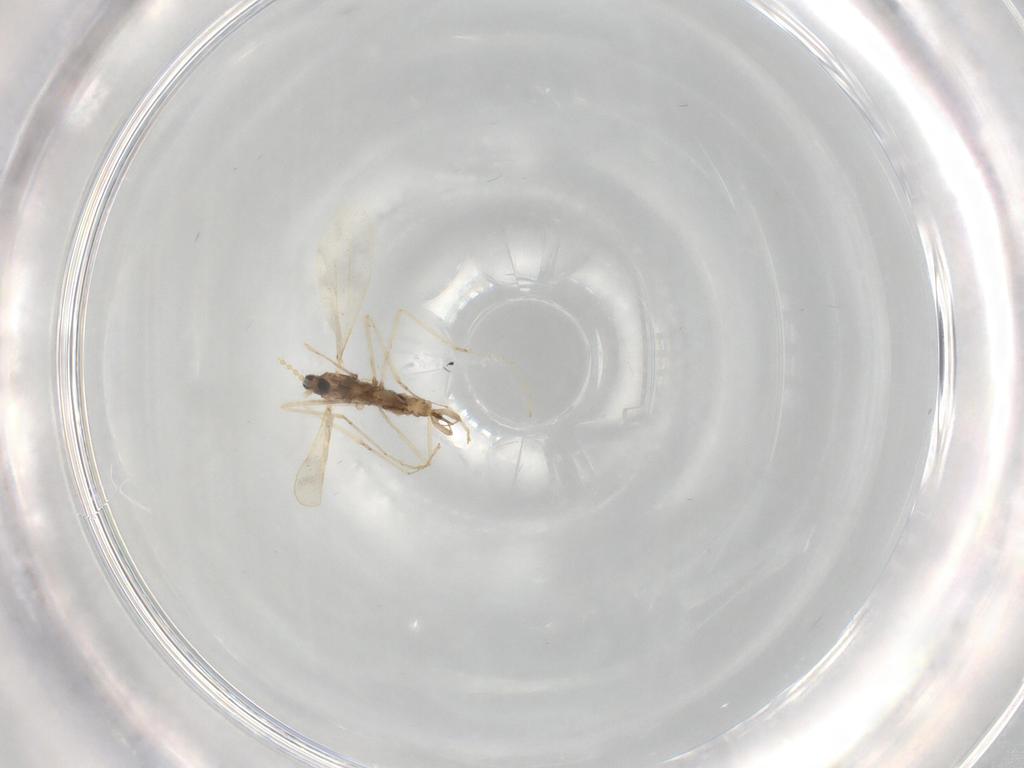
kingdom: Animalia
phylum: Arthropoda
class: Insecta
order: Diptera
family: Cecidomyiidae
